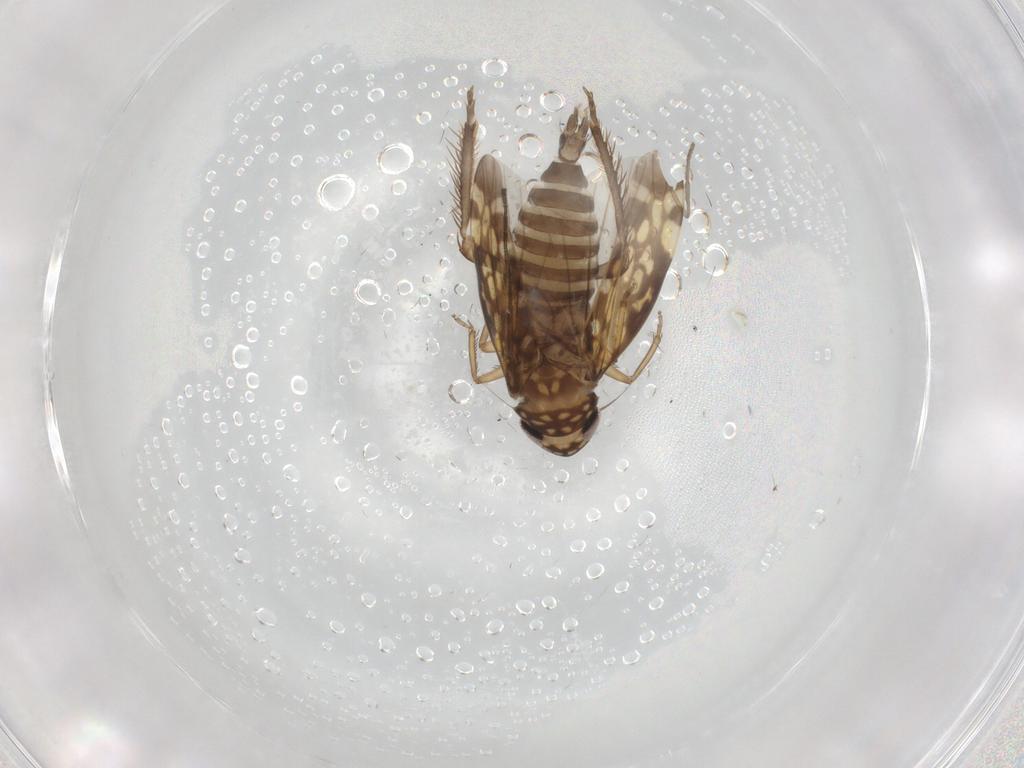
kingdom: Animalia
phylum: Arthropoda
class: Insecta
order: Hemiptera
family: Cicadellidae
